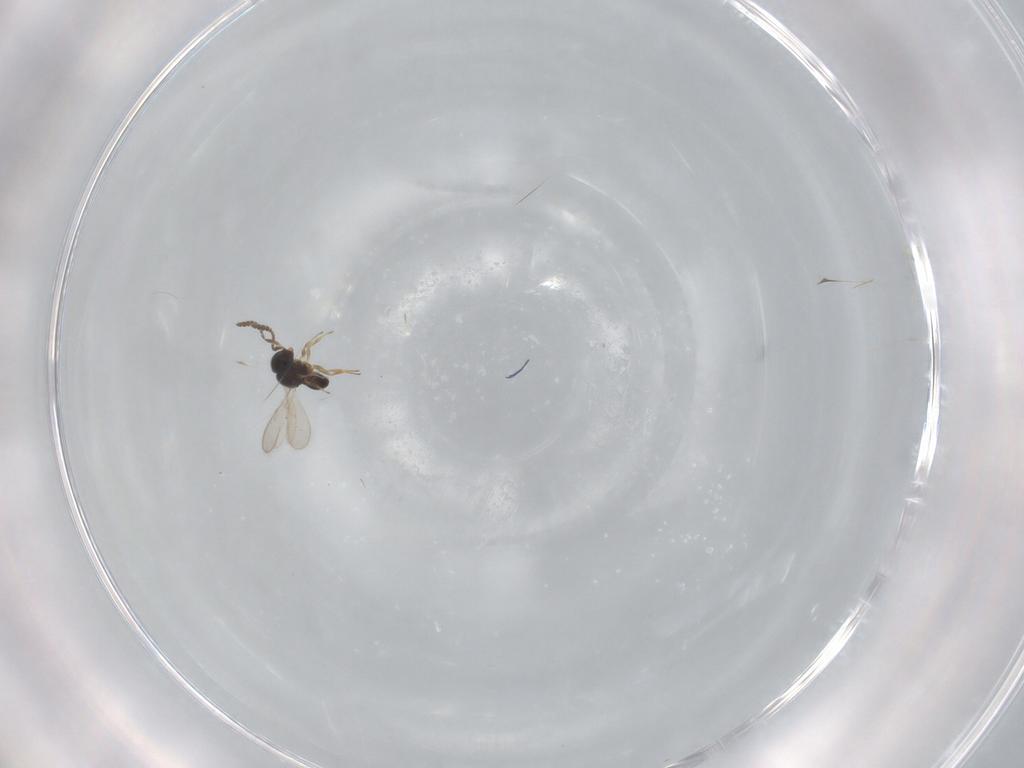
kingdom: Animalia
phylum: Arthropoda
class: Insecta
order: Hymenoptera
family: Scelionidae
